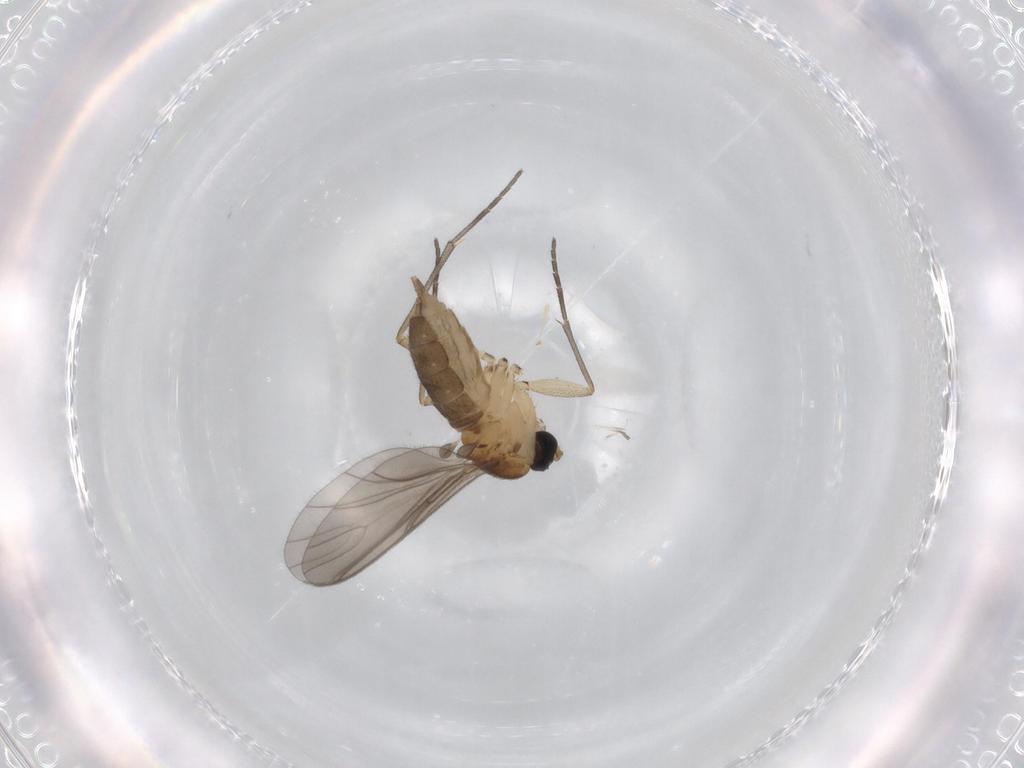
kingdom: Animalia
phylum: Arthropoda
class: Insecta
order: Diptera
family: Sciaridae
